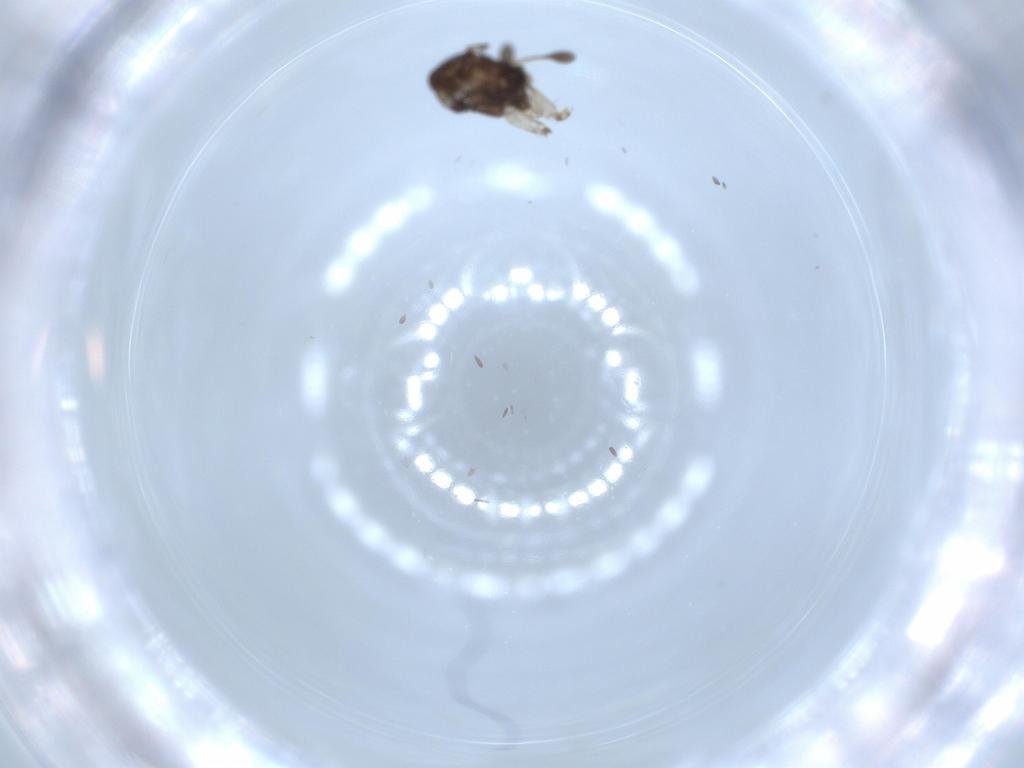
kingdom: Animalia
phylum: Arthropoda
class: Insecta
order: Diptera
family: Sciaridae
